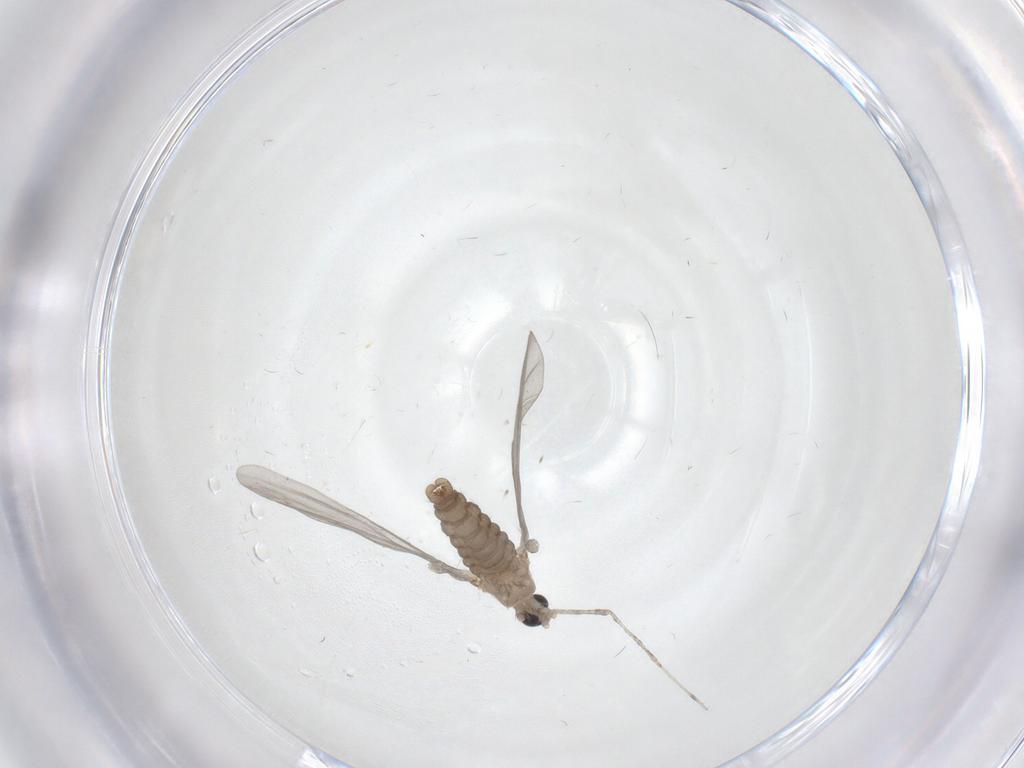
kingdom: Animalia
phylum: Arthropoda
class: Insecta
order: Diptera
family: Cecidomyiidae
